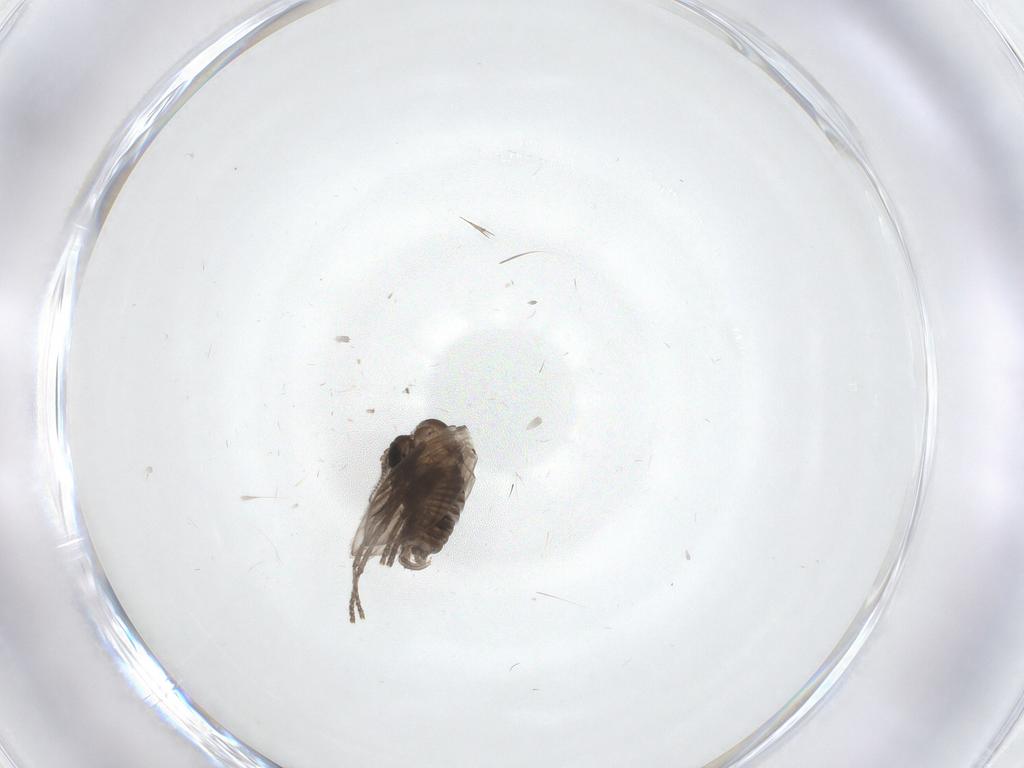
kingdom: Animalia
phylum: Arthropoda
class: Insecta
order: Diptera
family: Psychodidae
